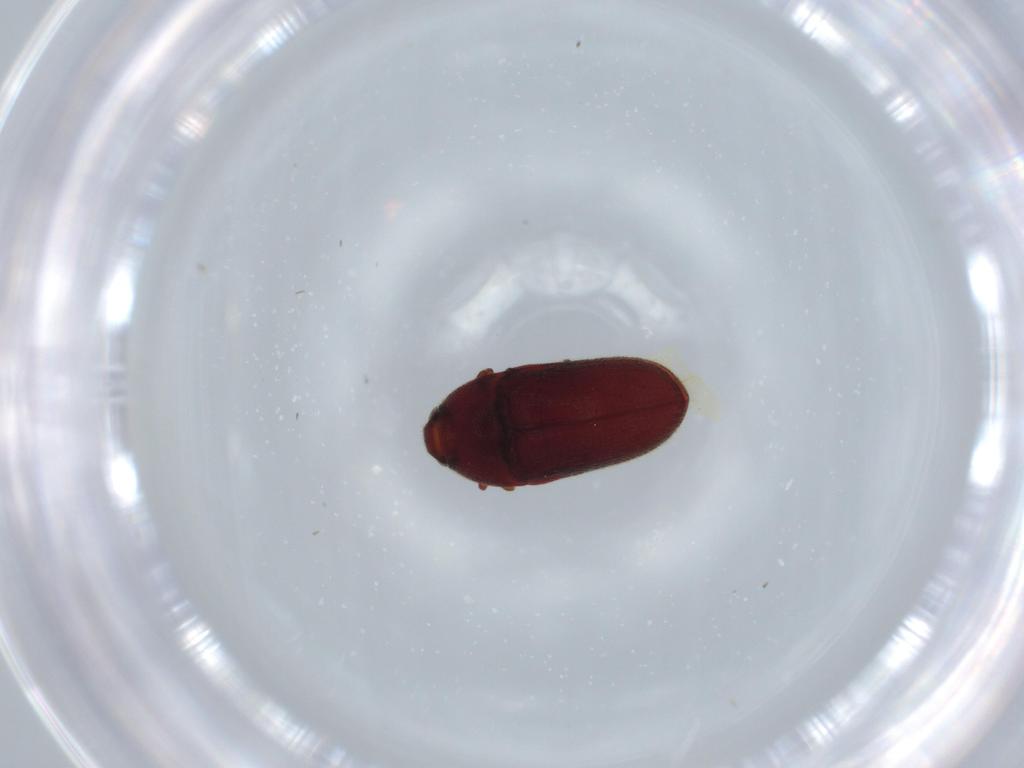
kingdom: Animalia
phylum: Arthropoda
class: Insecta
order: Coleoptera
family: Throscidae
